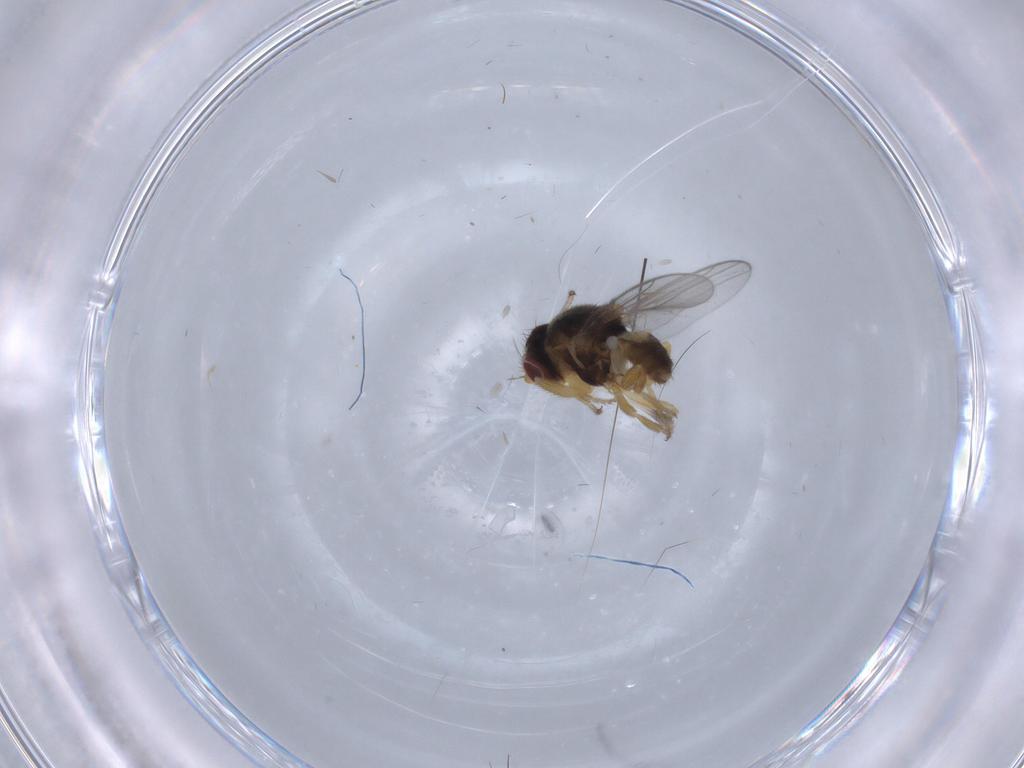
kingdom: Animalia
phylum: Arthropoda
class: Insecta
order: Diptera
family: Chloropidae
